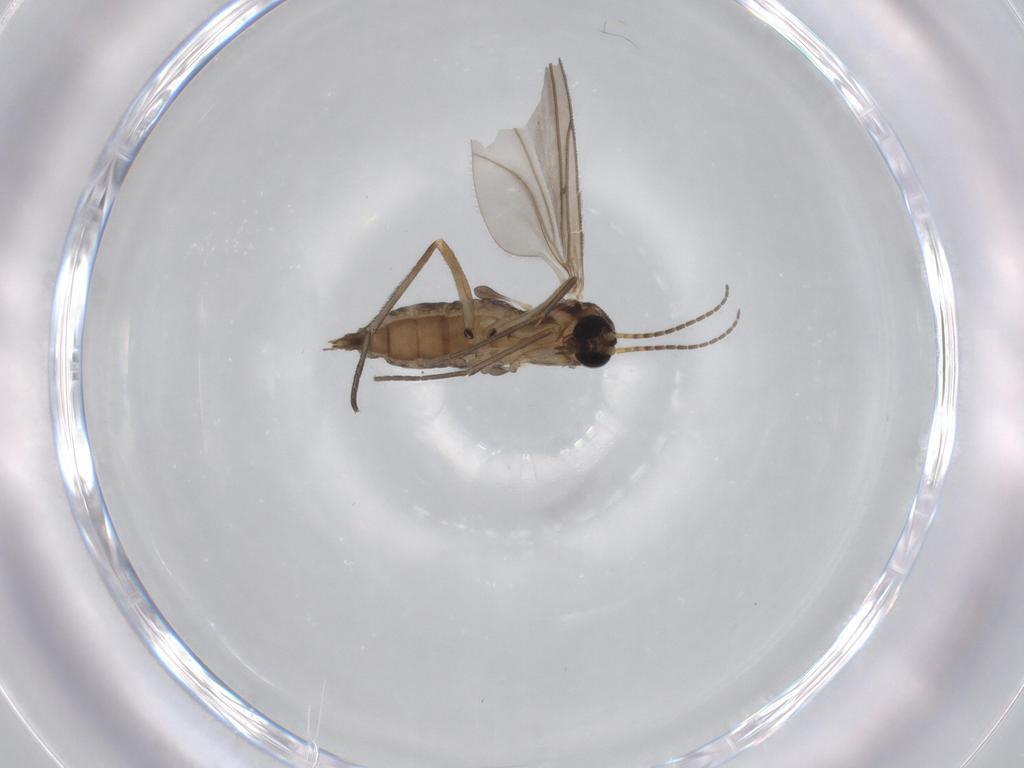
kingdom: Animalia
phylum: Arthropoda
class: Insecta
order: Diptera
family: Sciaridae
